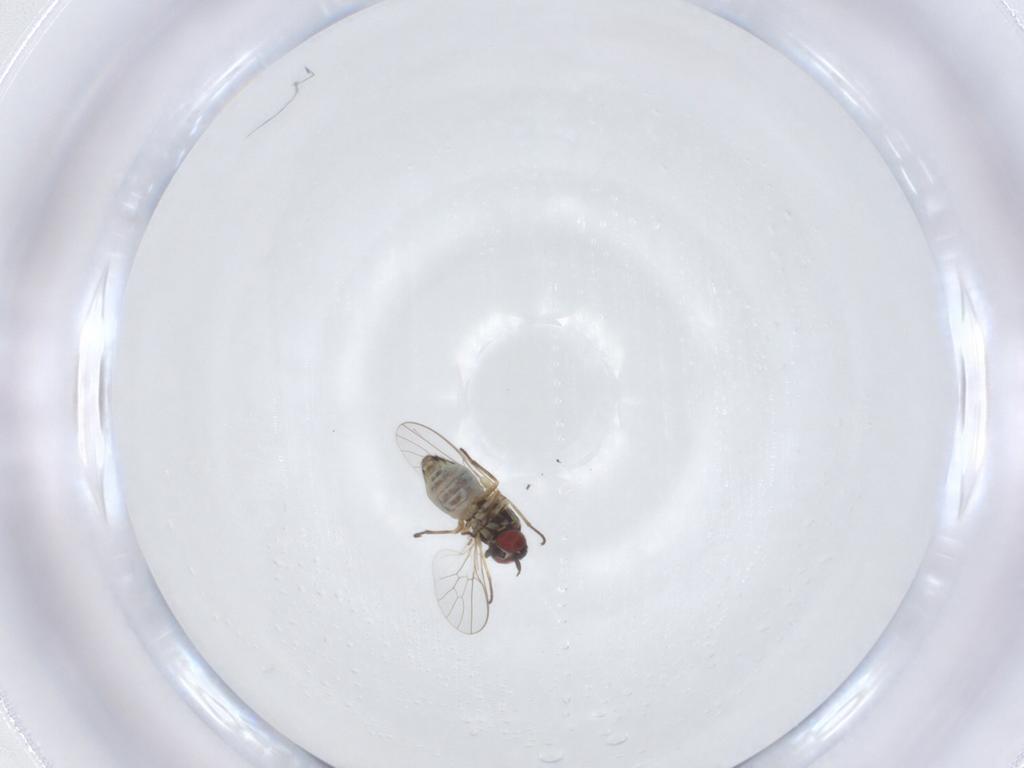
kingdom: Animalia
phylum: Arthropoda
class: Insecta
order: Diptera
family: Mythicomyiidae
